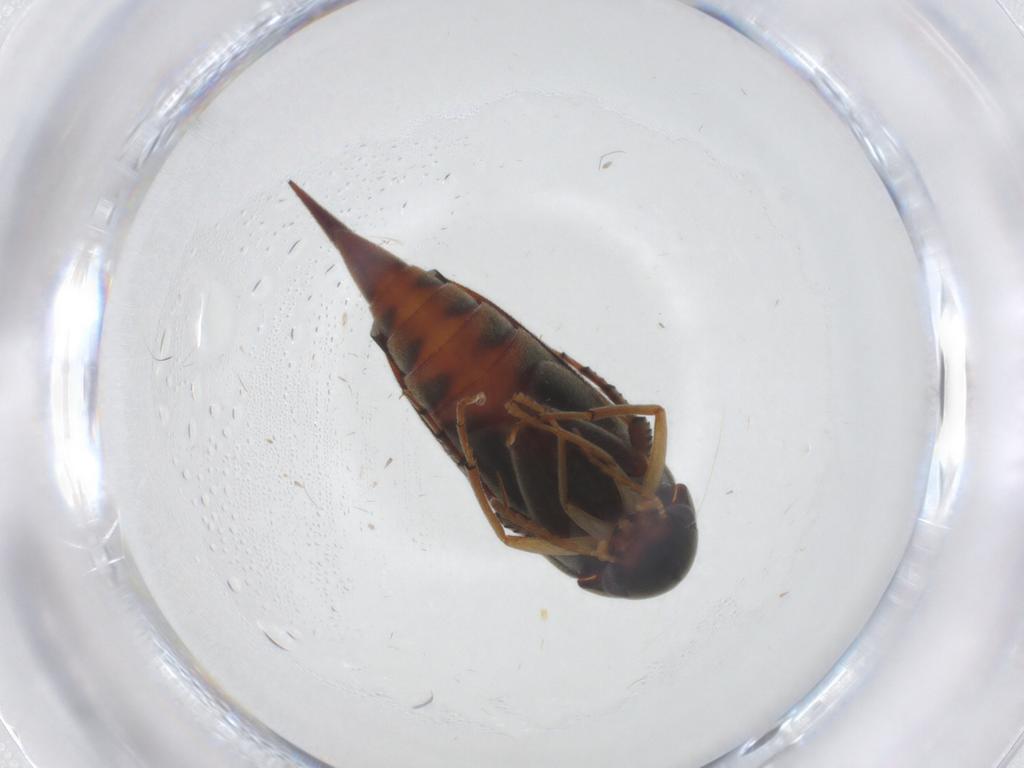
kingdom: Animalia
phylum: Arthropoda
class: Insecta
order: Coleoptera
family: Mordellidae
